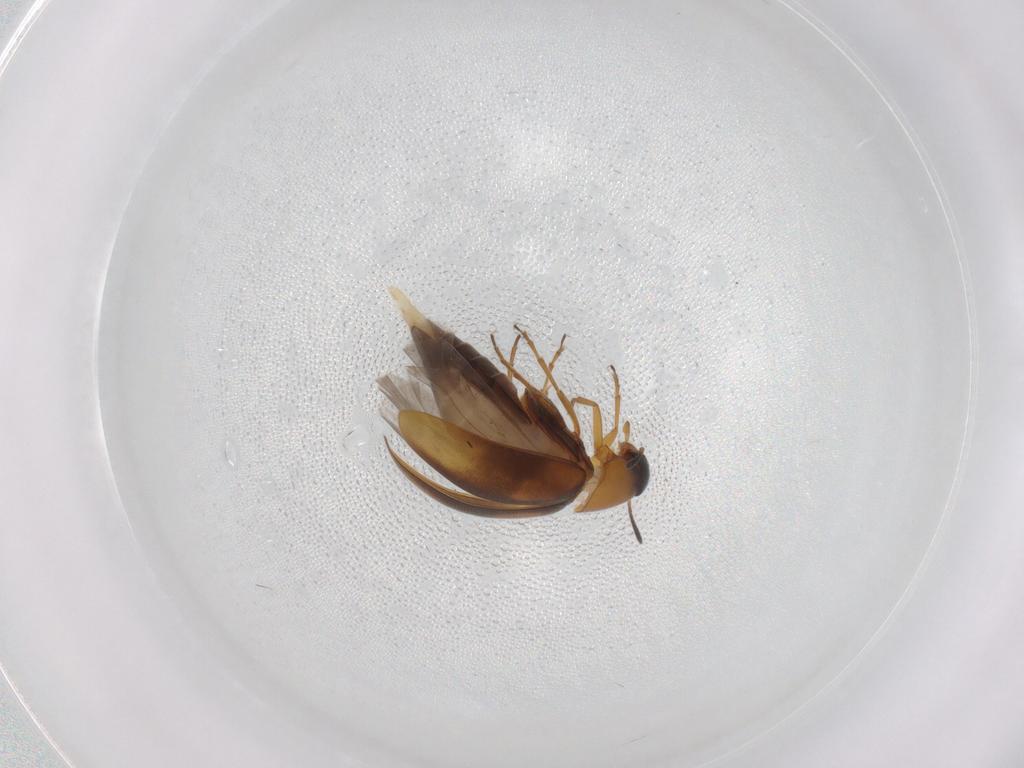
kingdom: Animalia
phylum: Arthropoda
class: Insecta
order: Coleoptera
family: Scraptiidae
